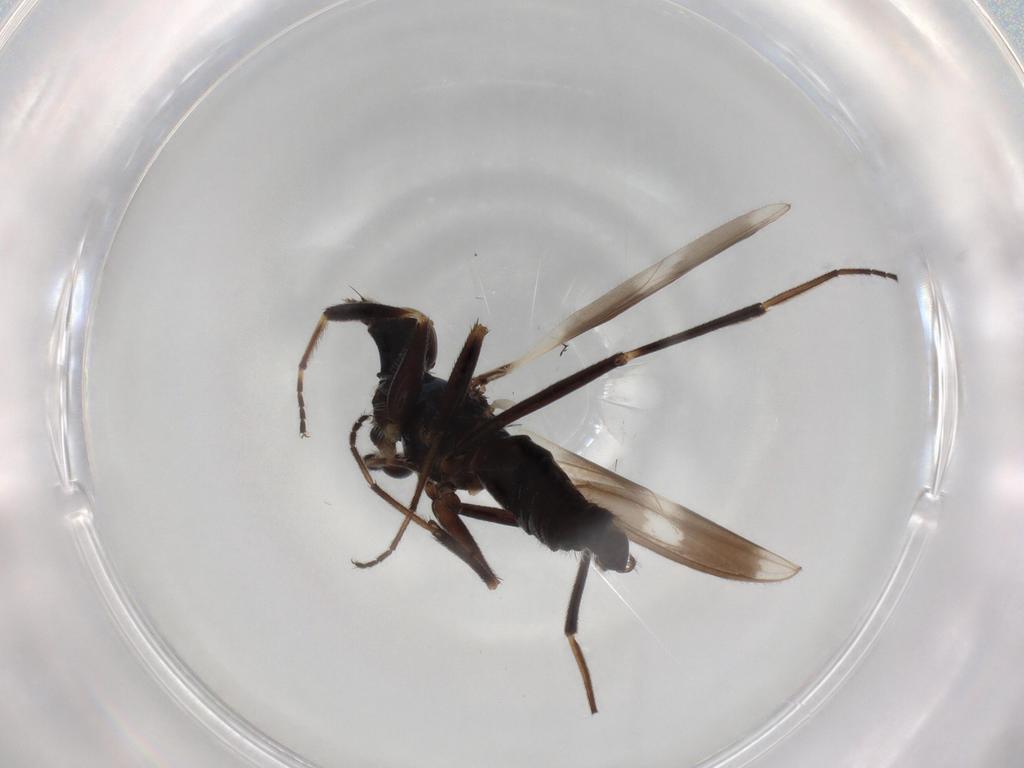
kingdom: Animalia
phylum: Arthropoda
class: Insecta
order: Diptera
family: Hybotidae
